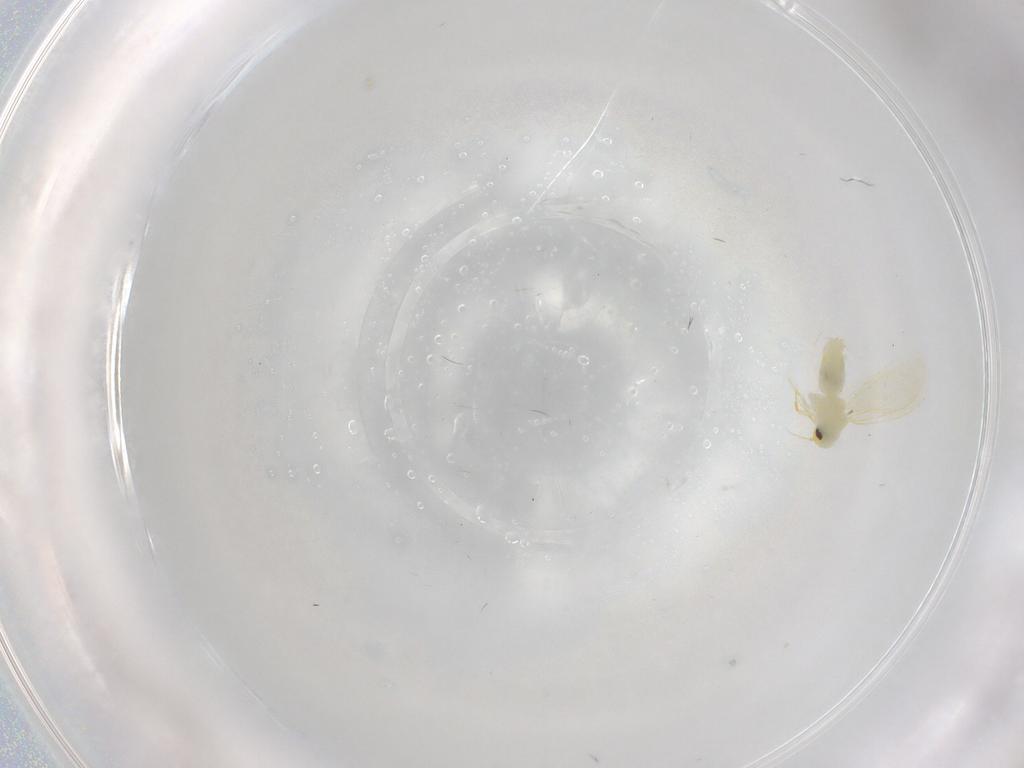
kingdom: Animalia
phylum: Arthropoda
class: Insecta
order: Hemiptera
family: Aleyrodidae
